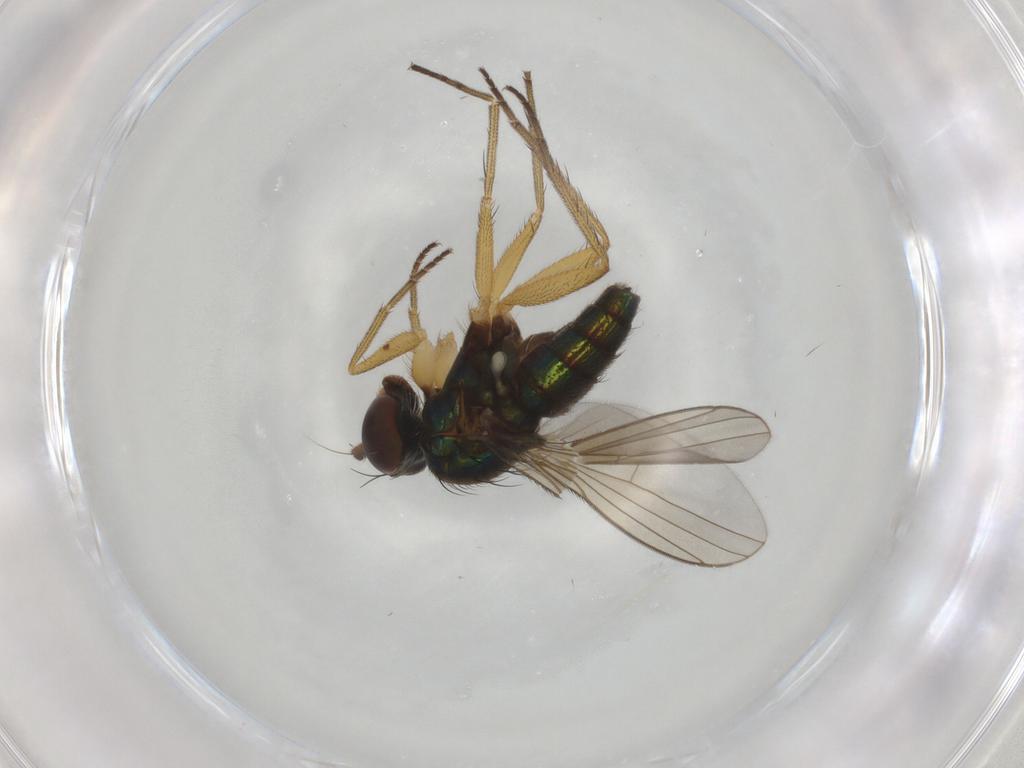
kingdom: Animalia
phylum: Arthropoda
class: Insecta
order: Diptera
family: Dolichopodidae
